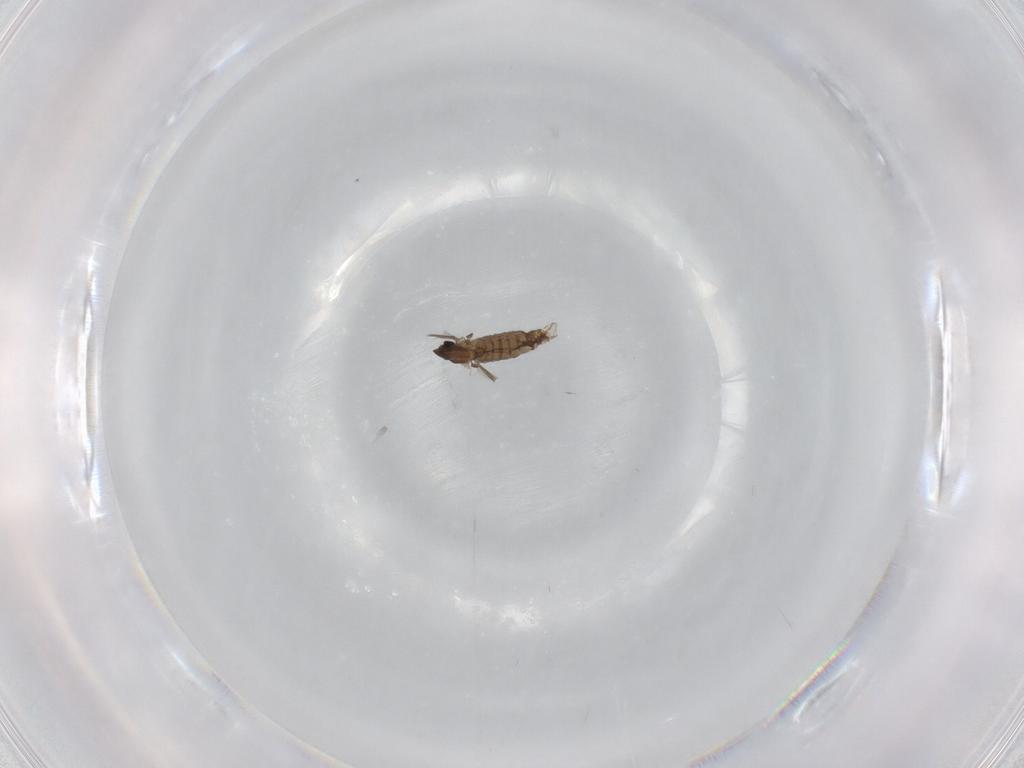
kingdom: Animalia
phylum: Arthropoda
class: Insecta
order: Diptera
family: Chironomidae
